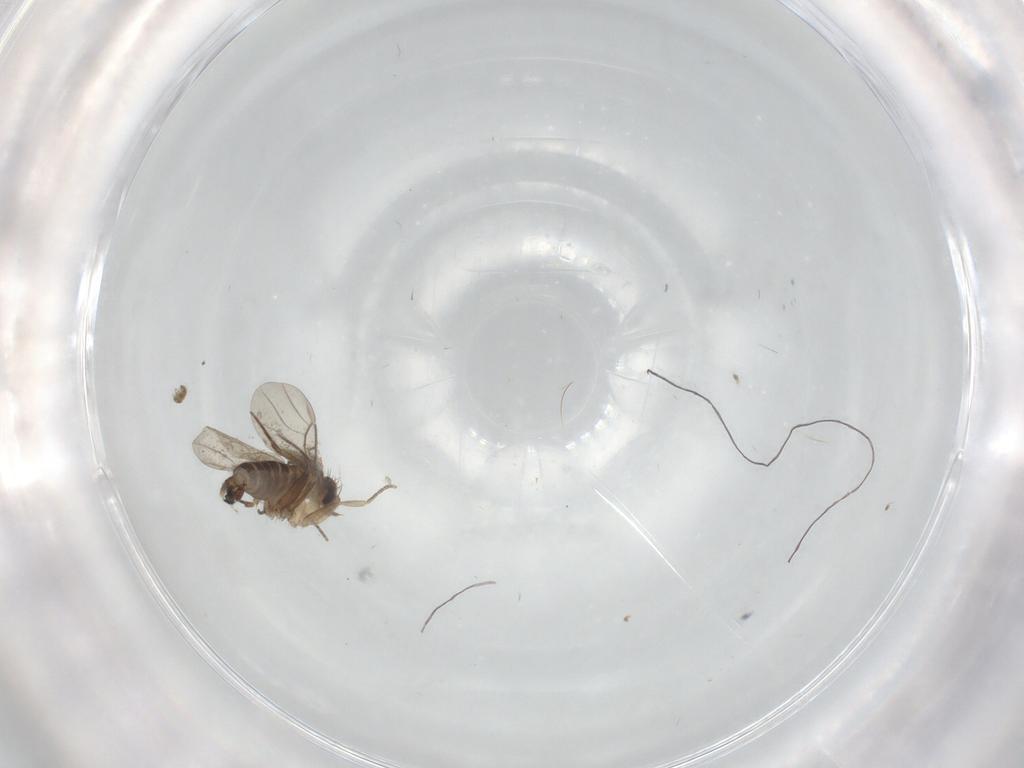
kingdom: Animalia
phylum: Arthropoda
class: Insecta
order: Diptera
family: Phoridae
